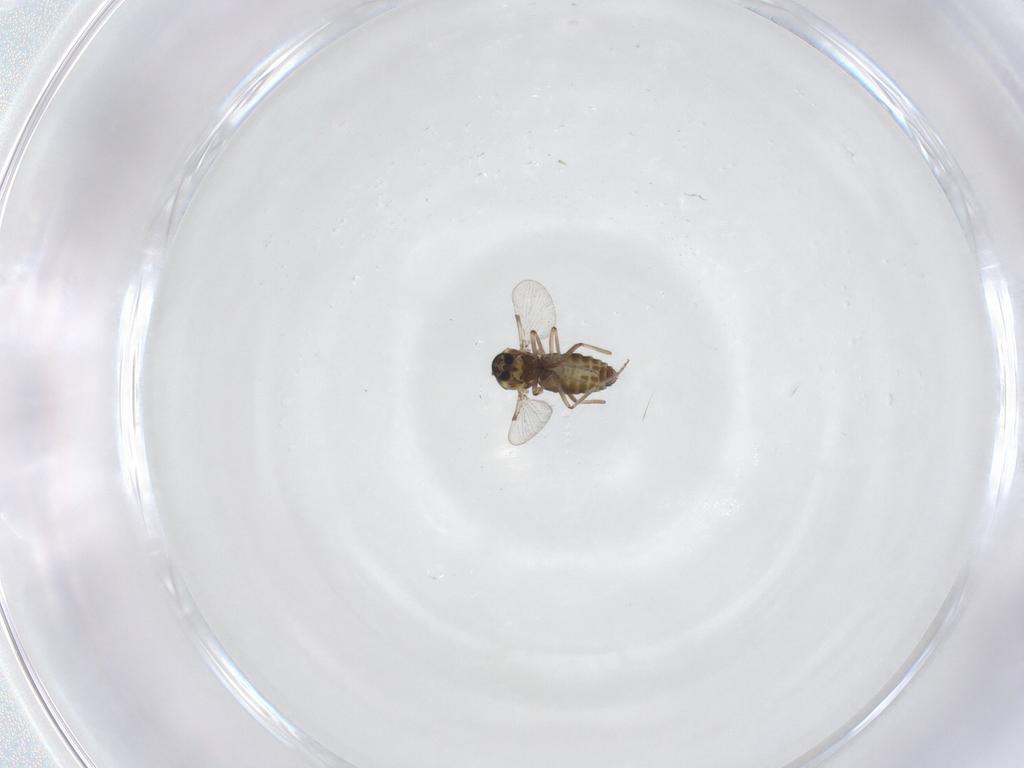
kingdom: Animalia
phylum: Arthropoda
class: Insecta
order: Diptera
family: Ceratopogonidae
